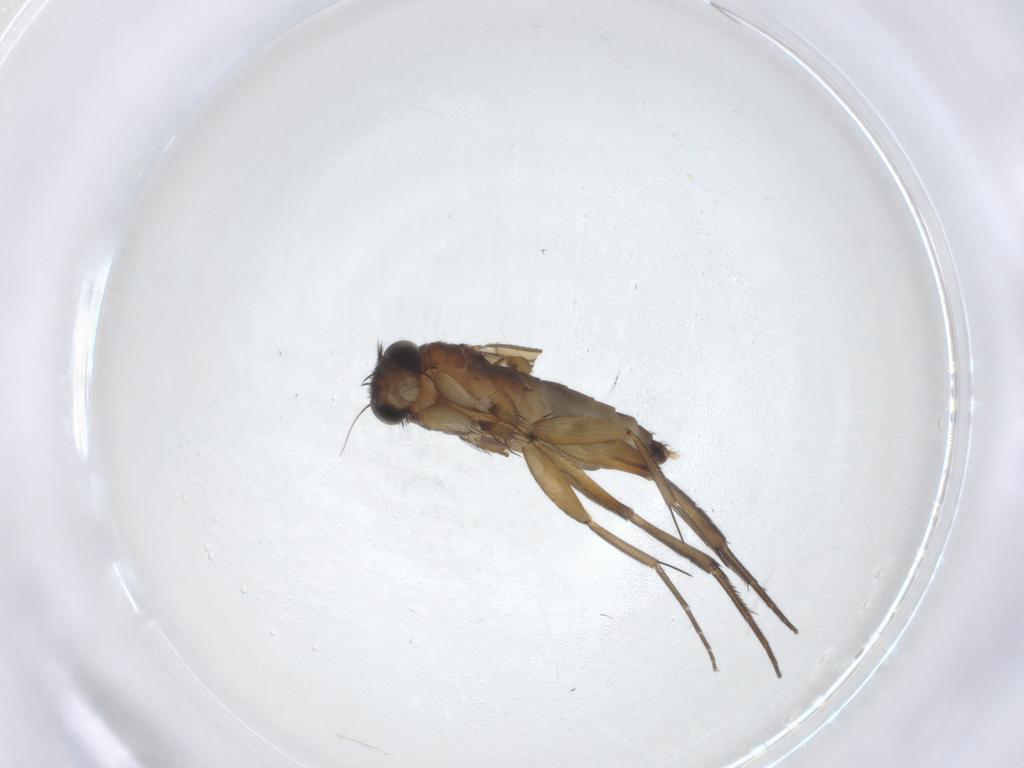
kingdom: Animalia
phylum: Arthropoda
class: Insecta
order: Diptera
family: Phoridae
